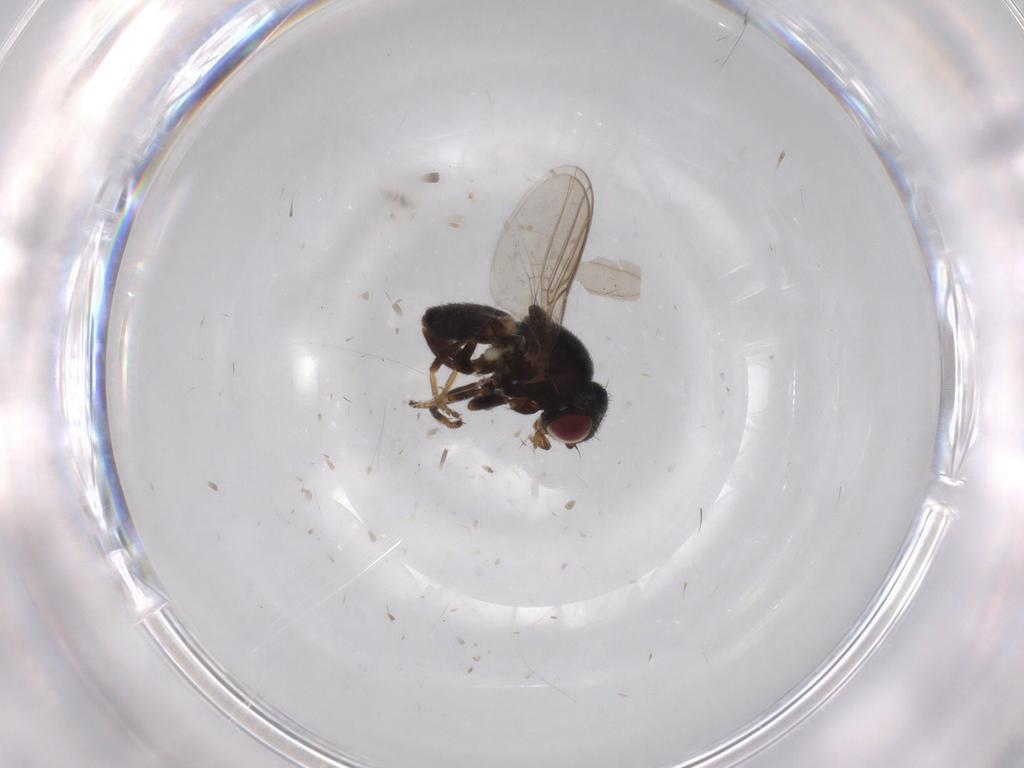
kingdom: Animalia
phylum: Arthropoda
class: Insecta
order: Diptera
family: Chloropidae
